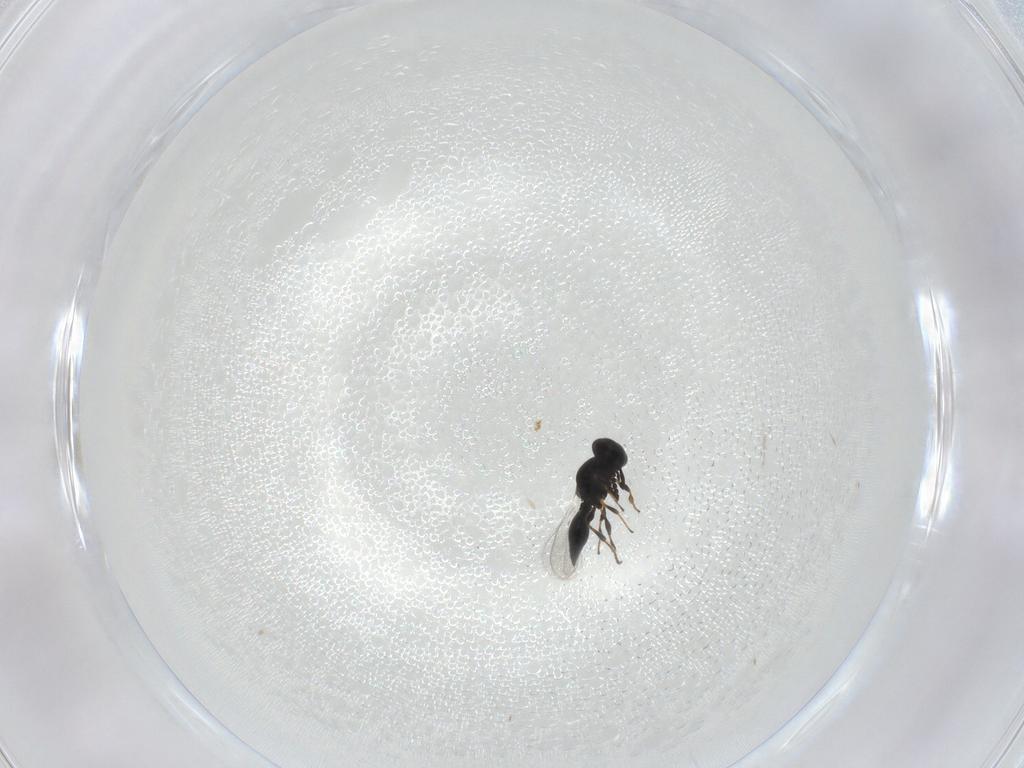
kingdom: Animalia
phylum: Arthropoda
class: Insecta
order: Hymenoptera
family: Platygastridae
